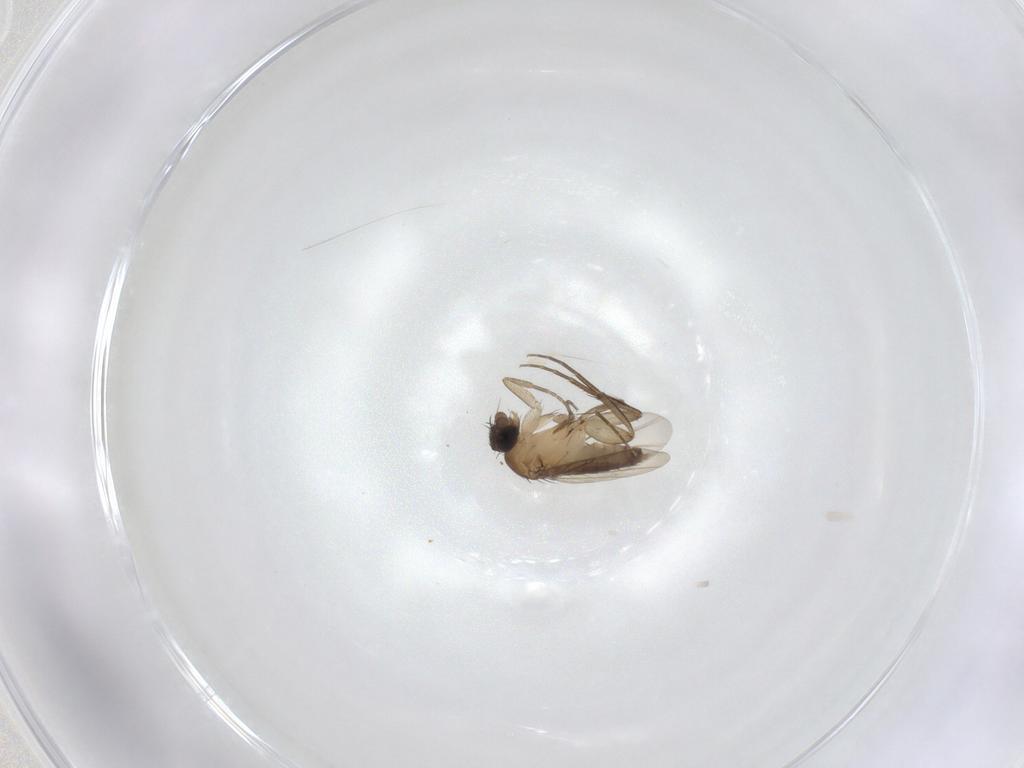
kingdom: Animalia
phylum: Arthropoda
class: Insecta
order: Diptera
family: Phoridae
